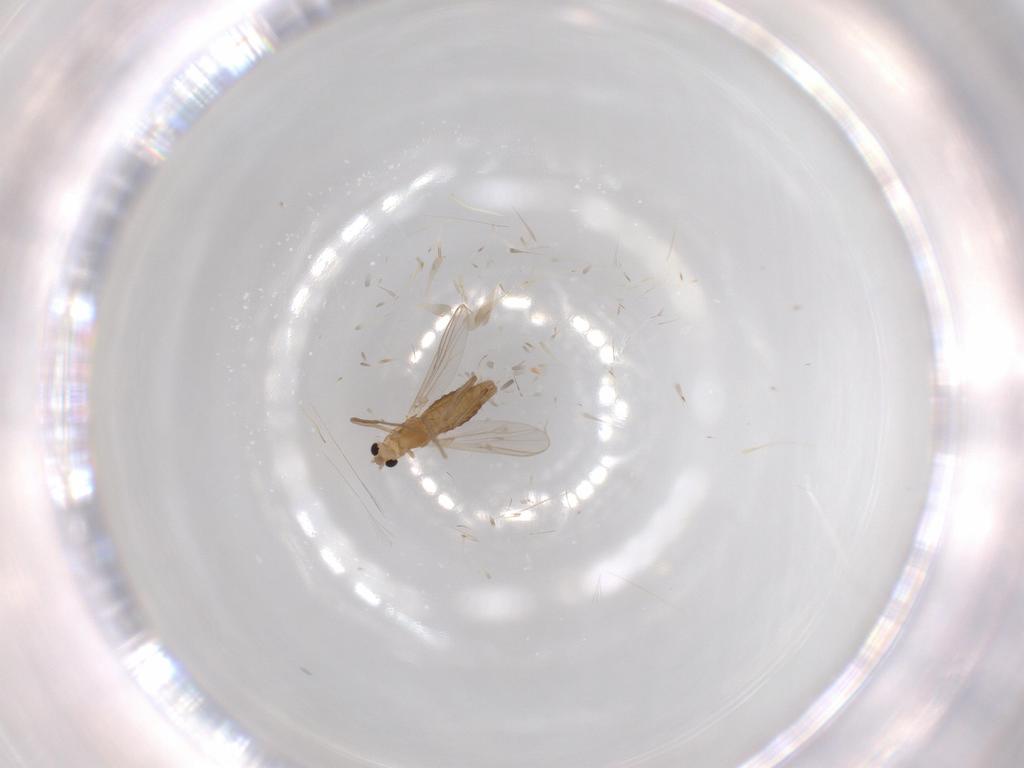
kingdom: Animalia
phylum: Arthropoda
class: Insecta
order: Diptera
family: Chironomidae
